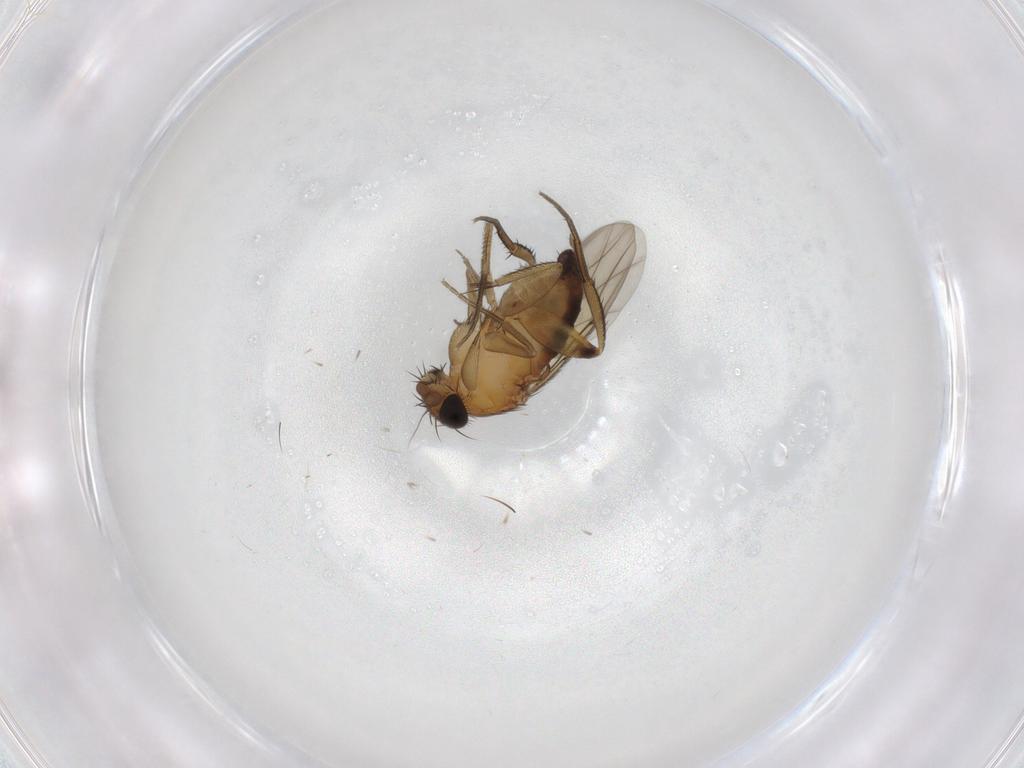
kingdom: Animalia
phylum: Arthropoda
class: Insecta
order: Diptera
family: Phoridae
